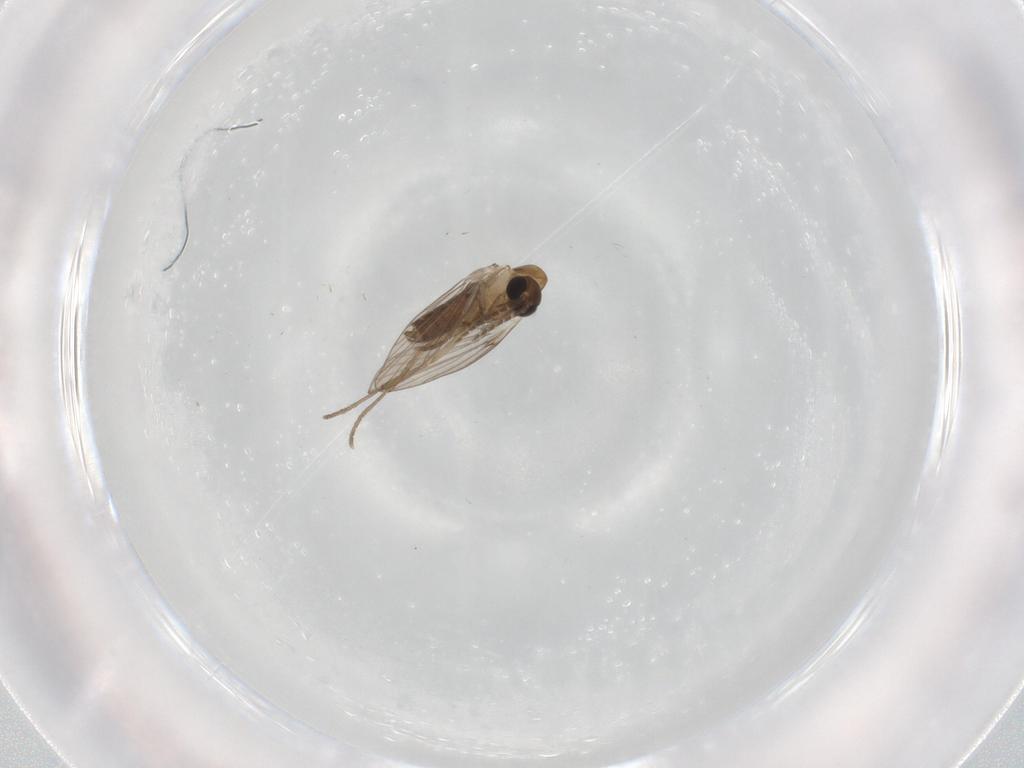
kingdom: Animalia
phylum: Arthropoda
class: Insecta
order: Diptera
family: Psychodidae
